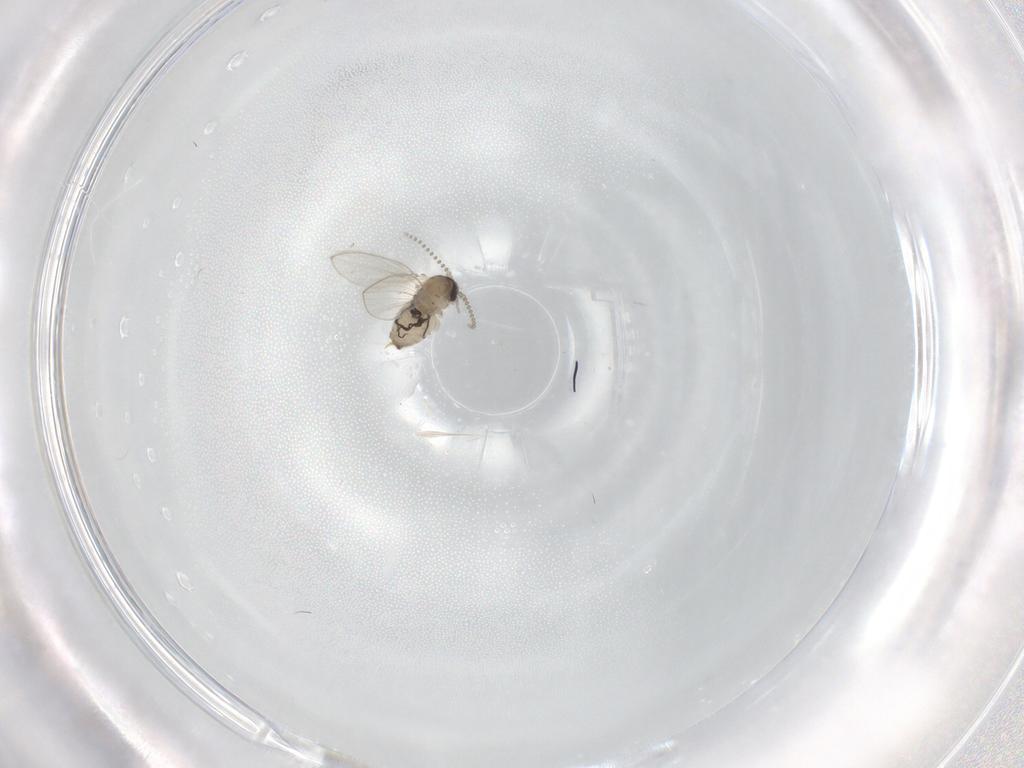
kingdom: Animalia
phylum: Arthropoda
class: Insecta
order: Diptera
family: Psychodidae
